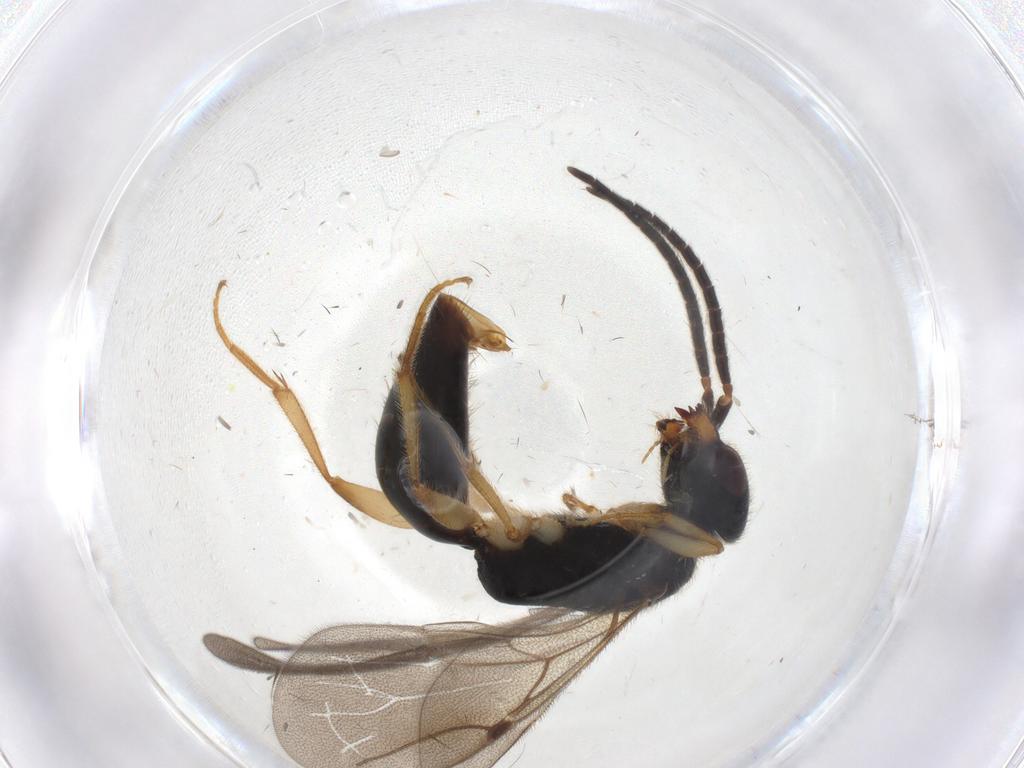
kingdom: Animalia
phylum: Arthropoda
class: Insecta
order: Hymenoptera
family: Bethylidae
